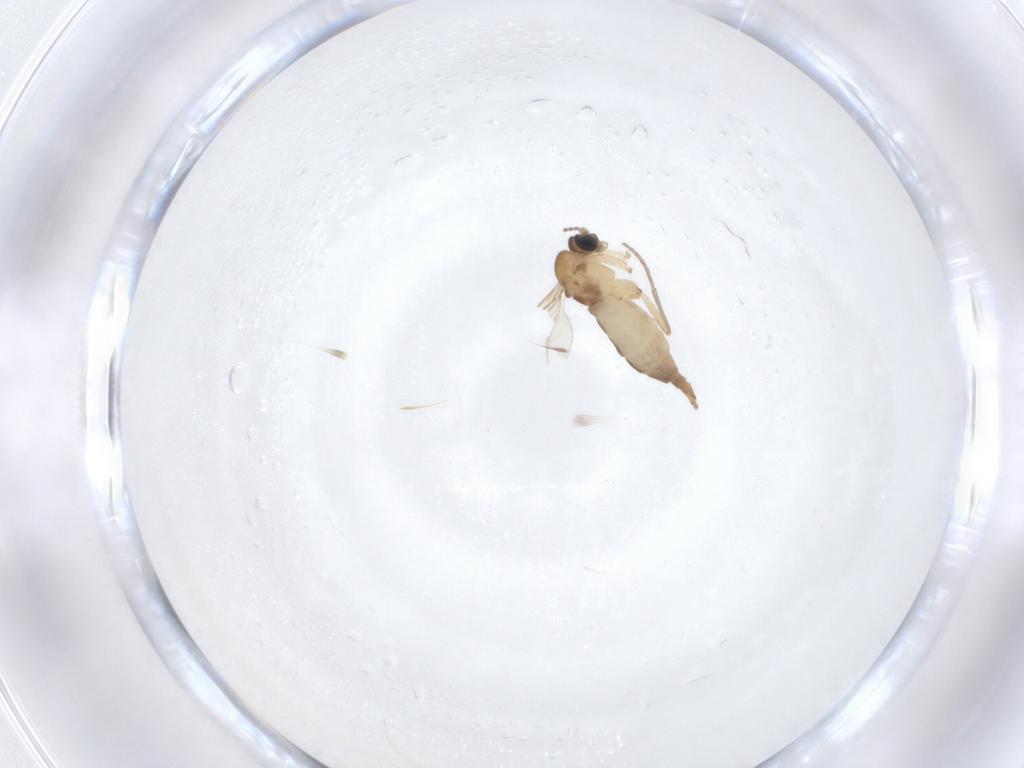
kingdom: Animalia
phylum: Arthropoda
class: Insecta
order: Diptera
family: Sciaridae
